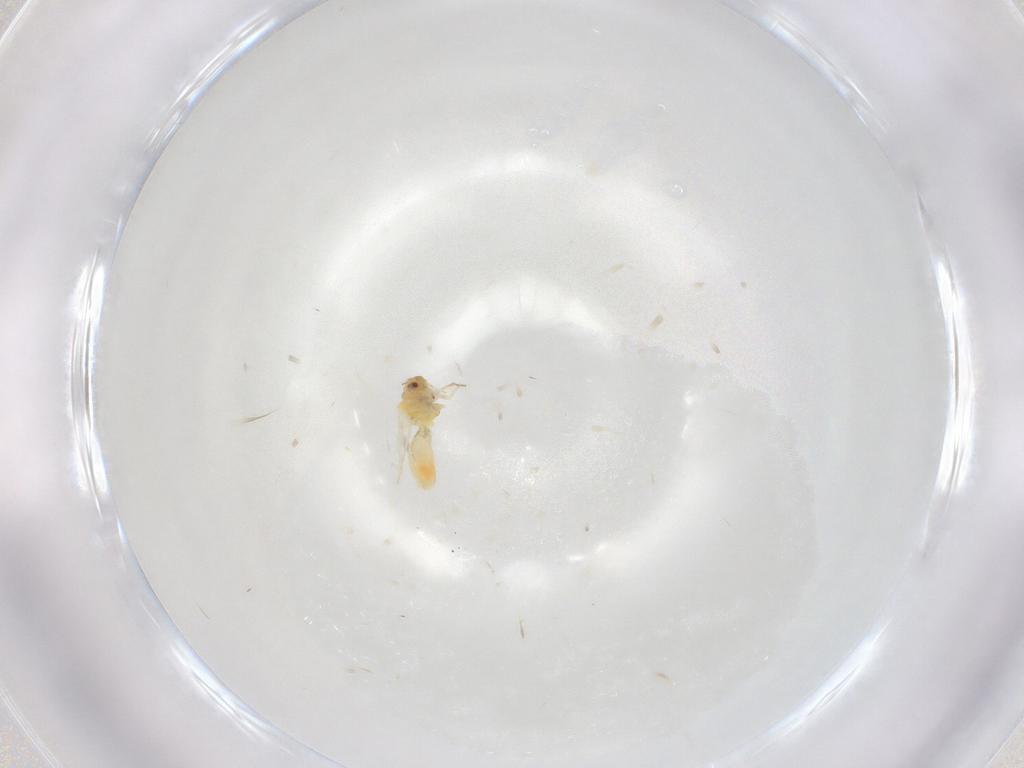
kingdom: Animalia
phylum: Arthropoda
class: Insecta
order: Hemiptera
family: Aleyrodidae
